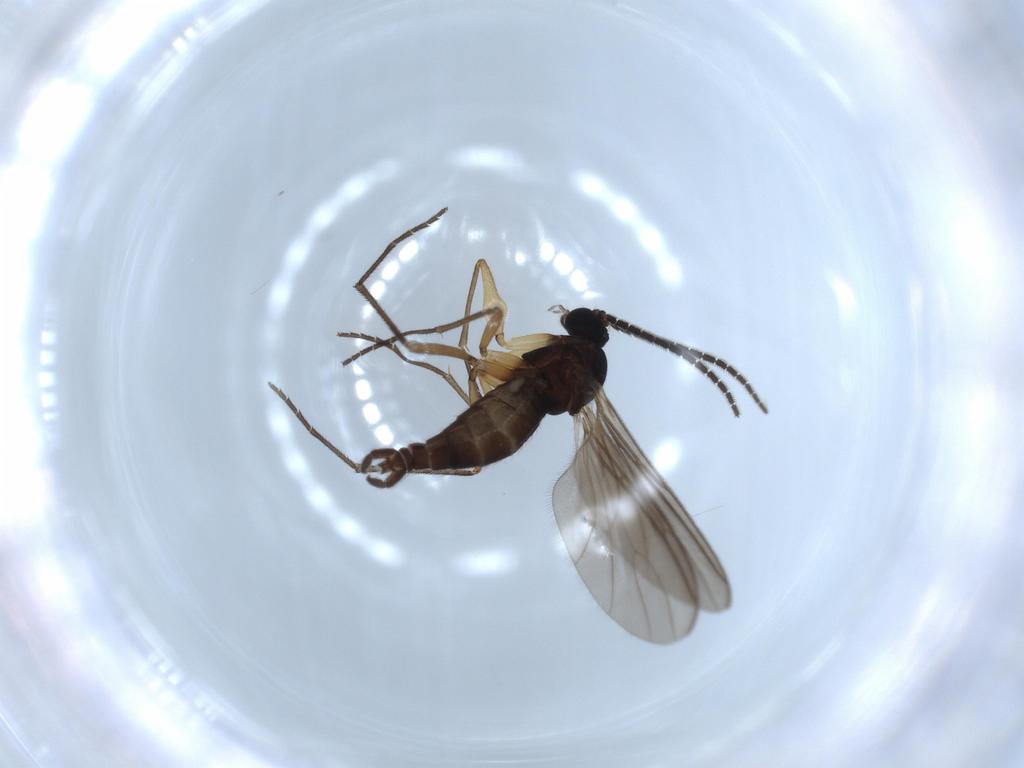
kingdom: Animalia
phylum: Arthropoda
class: Insecta
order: Diptera
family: Sciaridae
